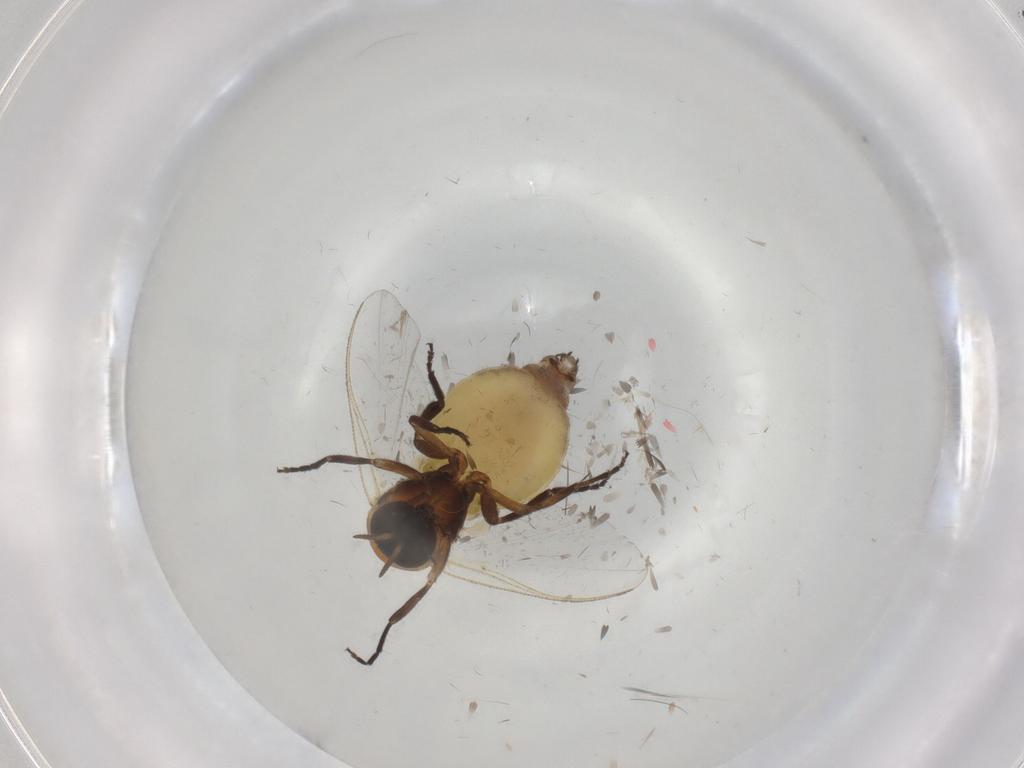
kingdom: Animalia
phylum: Arthropoda
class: Insecta
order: Diptera
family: Simuliidae
